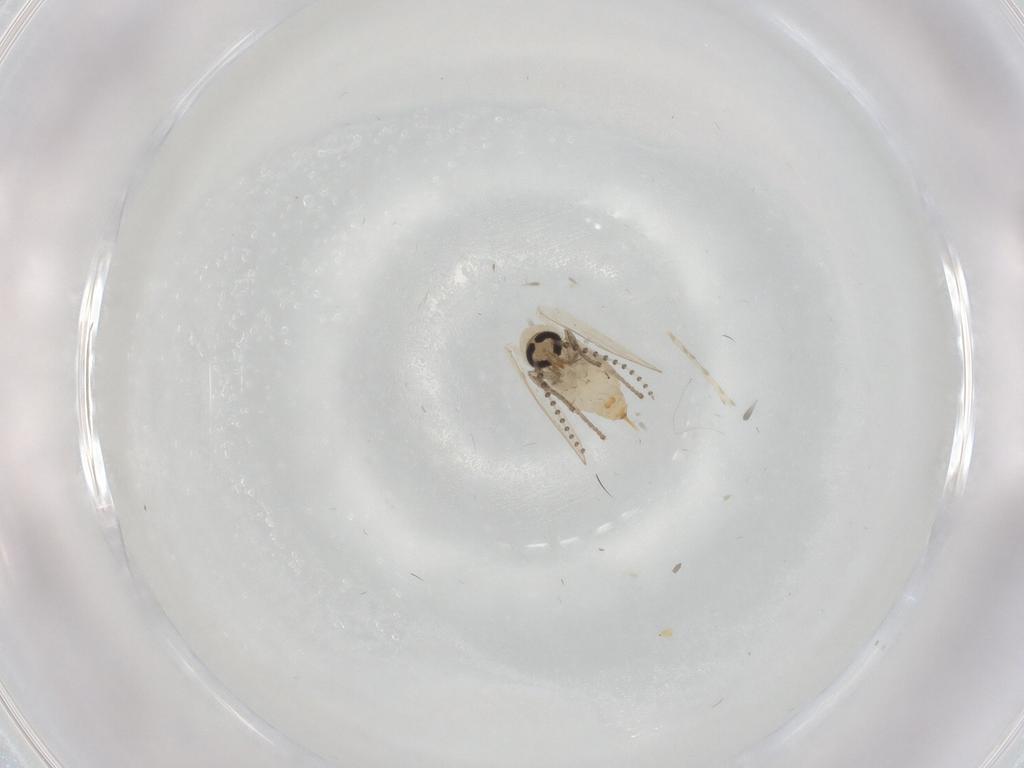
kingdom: Animalia
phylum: Arthropoda
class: Insecta
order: Diptera
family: Psychodidae
